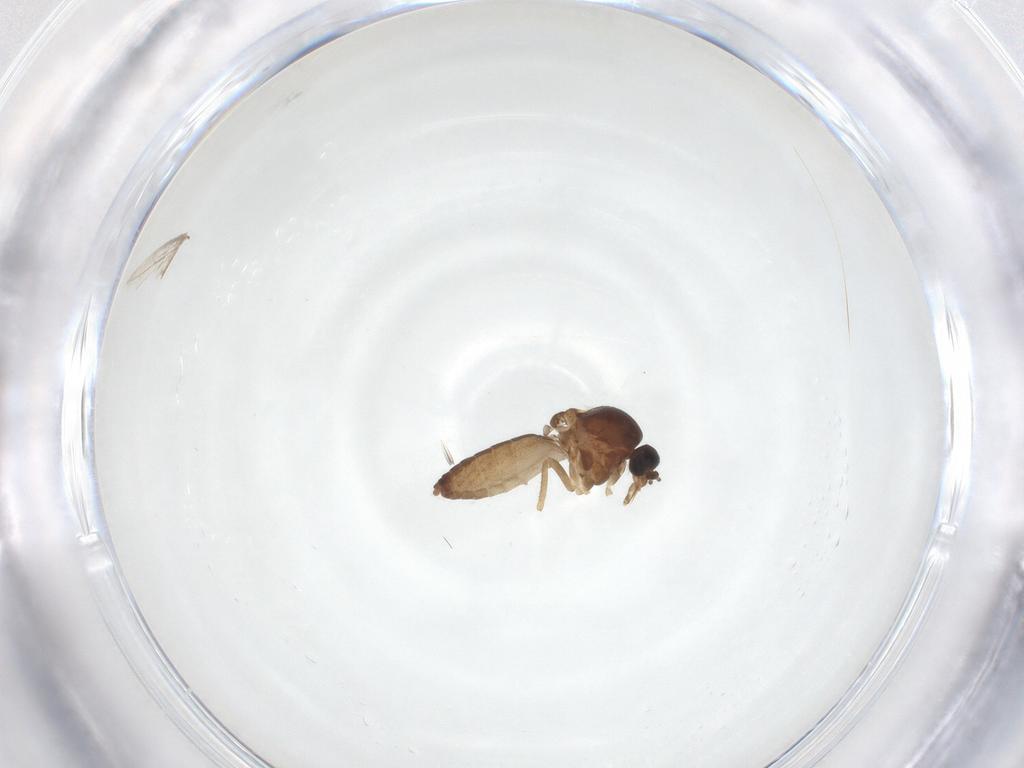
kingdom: Animalia
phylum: Arthropoda
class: Insecta
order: Diptera
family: Ceratopogonidae
